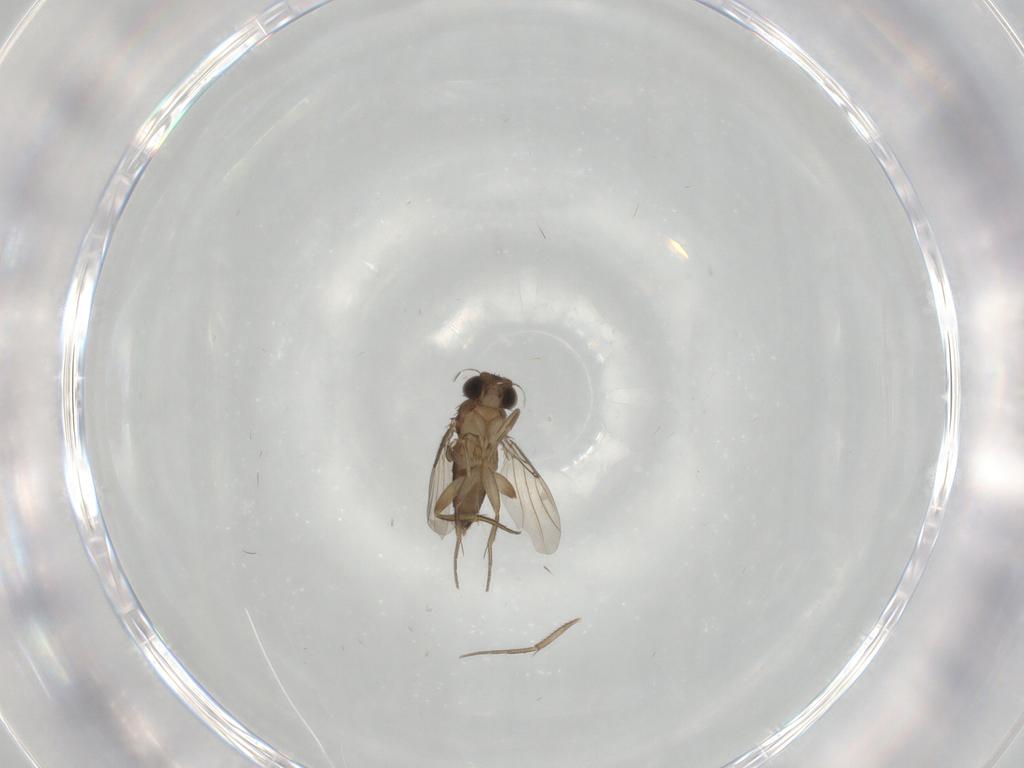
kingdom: Animalia
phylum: Arthropoda
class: Insecta
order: Diptera
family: Phoridae
